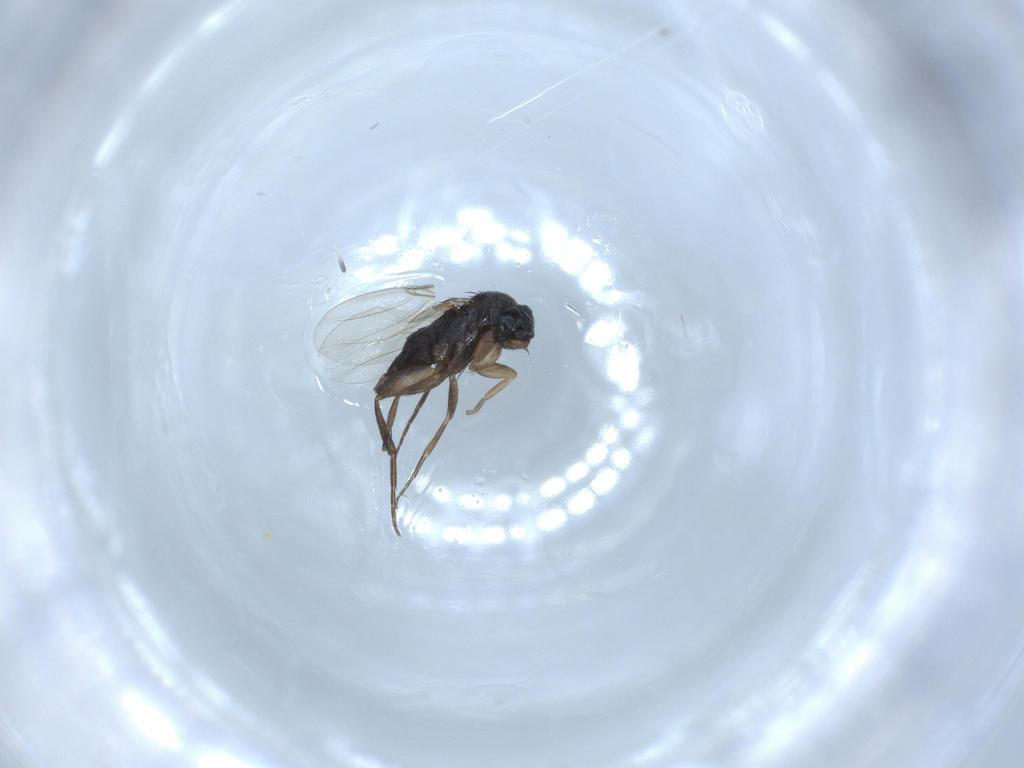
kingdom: Animalia
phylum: Arthropoda
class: Insecta
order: Diptera
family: Phoridae
